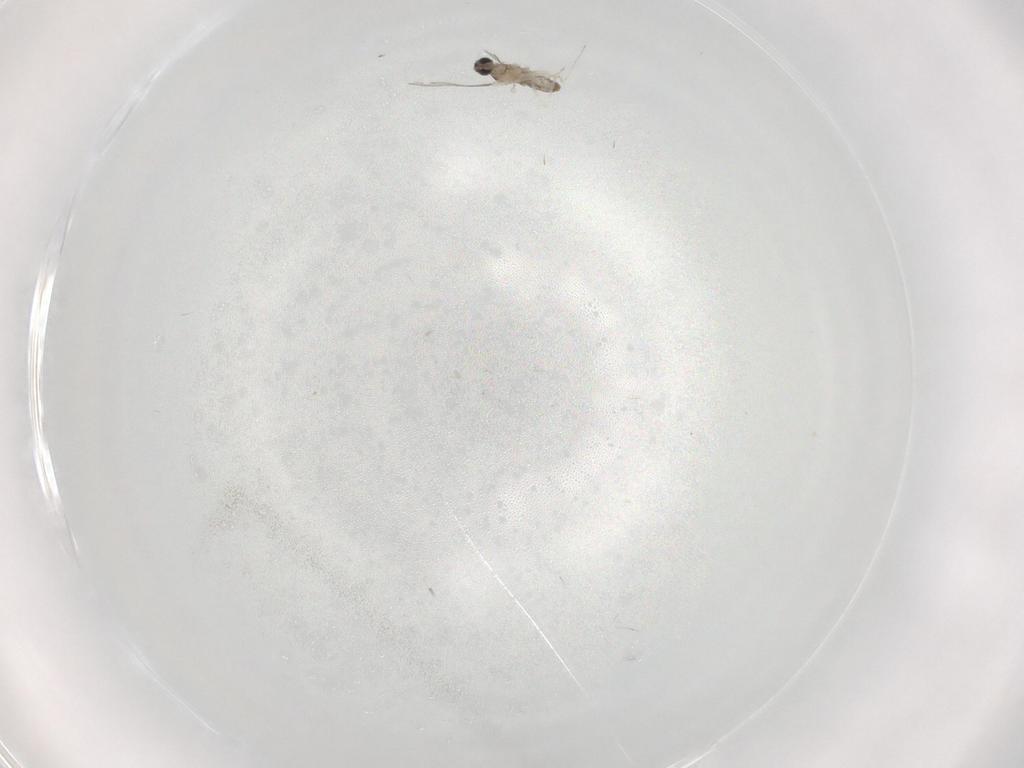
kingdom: Animalia
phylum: Arthropoda
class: Insecta
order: Diptera
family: Cecidomyiidae
